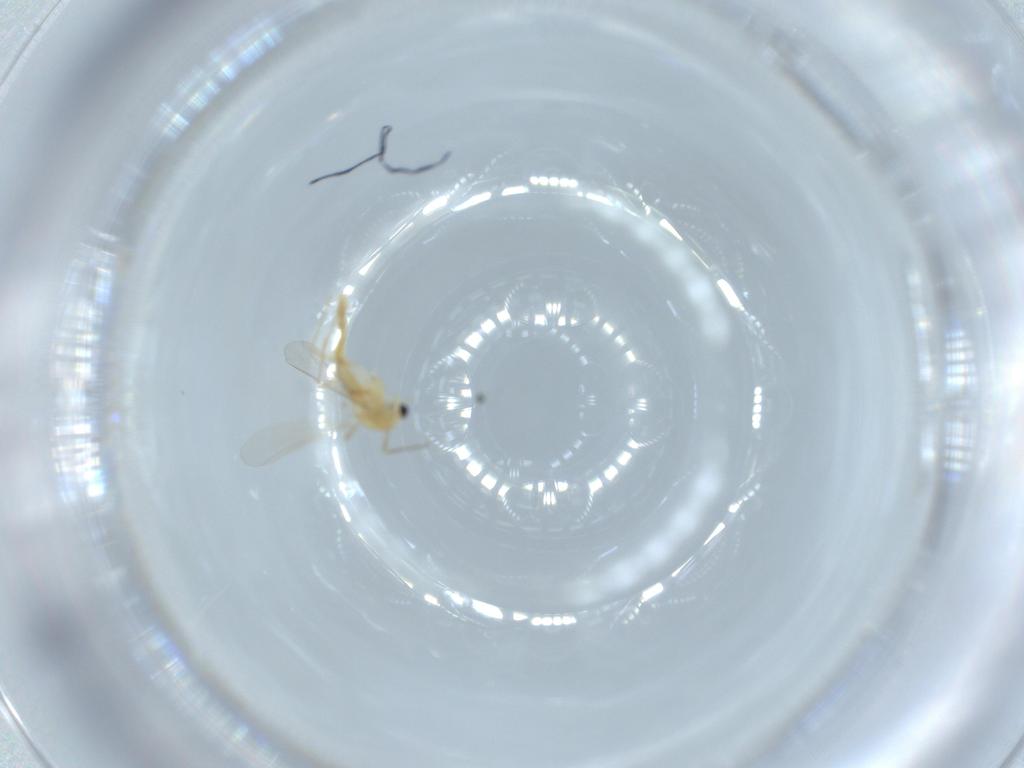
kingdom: Animalia
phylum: Arthropoda
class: Insecta
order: Diptera
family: Chironomidae
